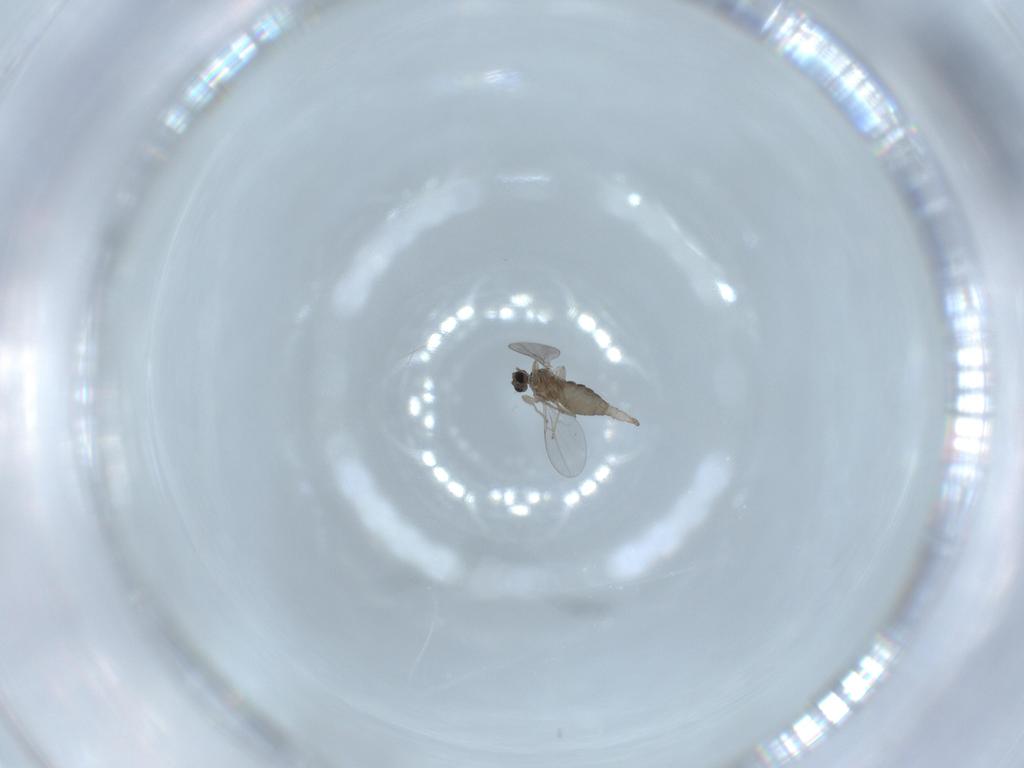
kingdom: Animalia
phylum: Arthropoda
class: Insecta
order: Diptera
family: Cecidomyiidae
